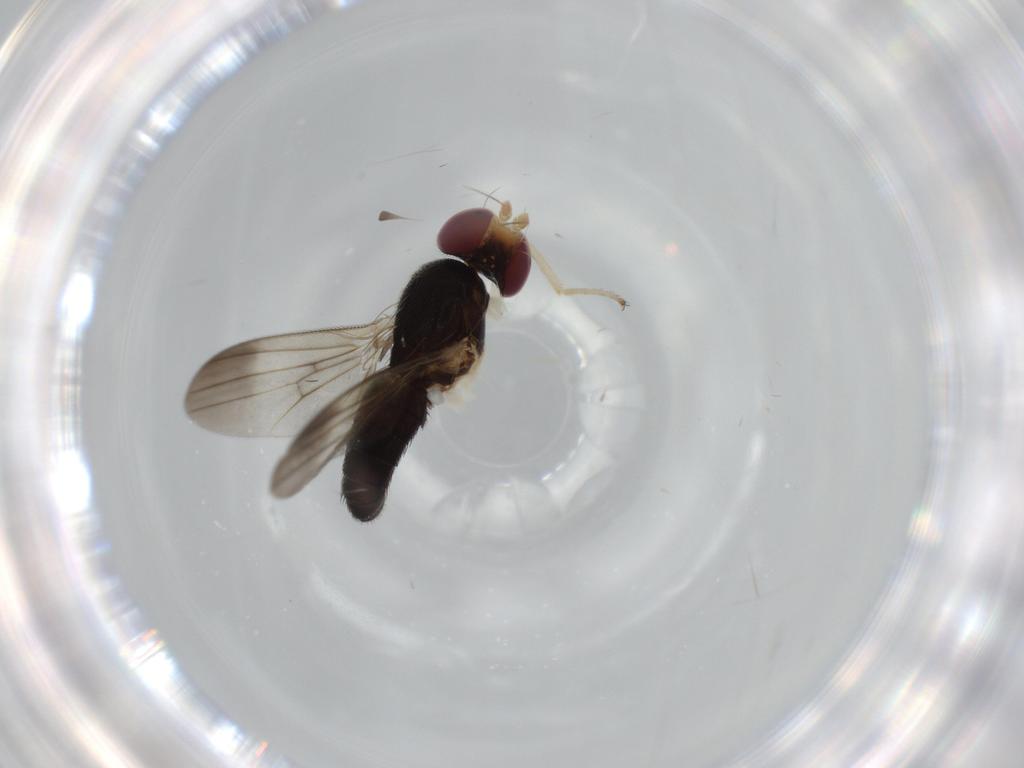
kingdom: Animalia
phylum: Arthropoda
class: Insecta
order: Diptera
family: Clusiidae
